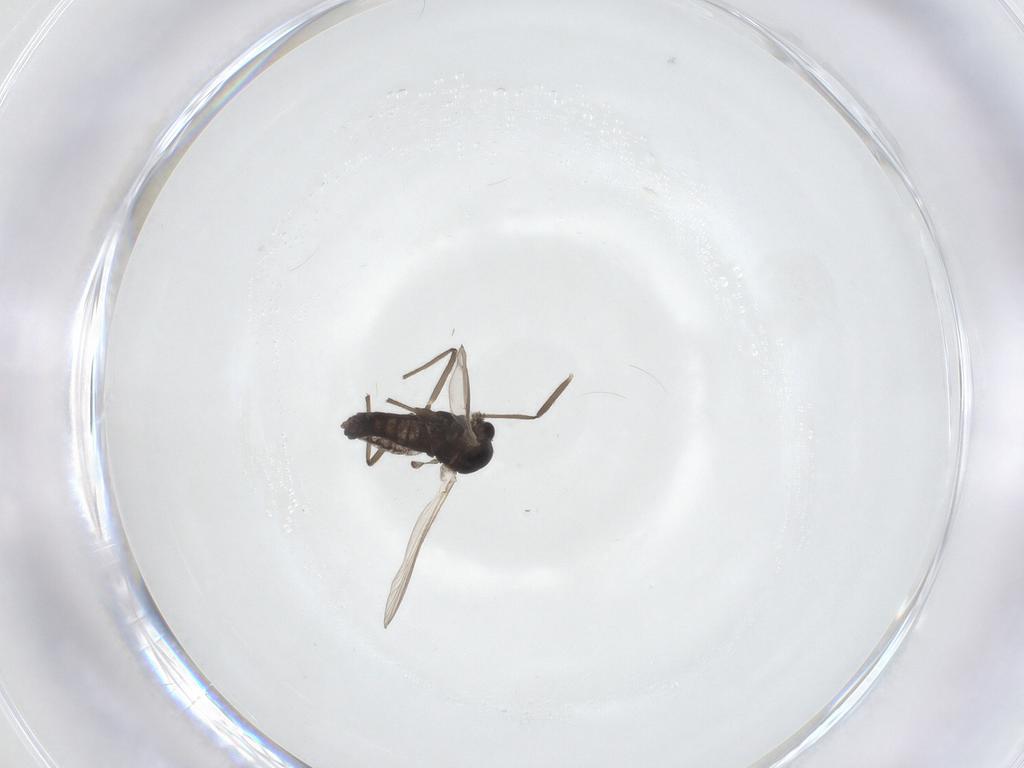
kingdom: Animalia
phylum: Arthropoda
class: Insecta
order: Diptera
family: Chironomidae
